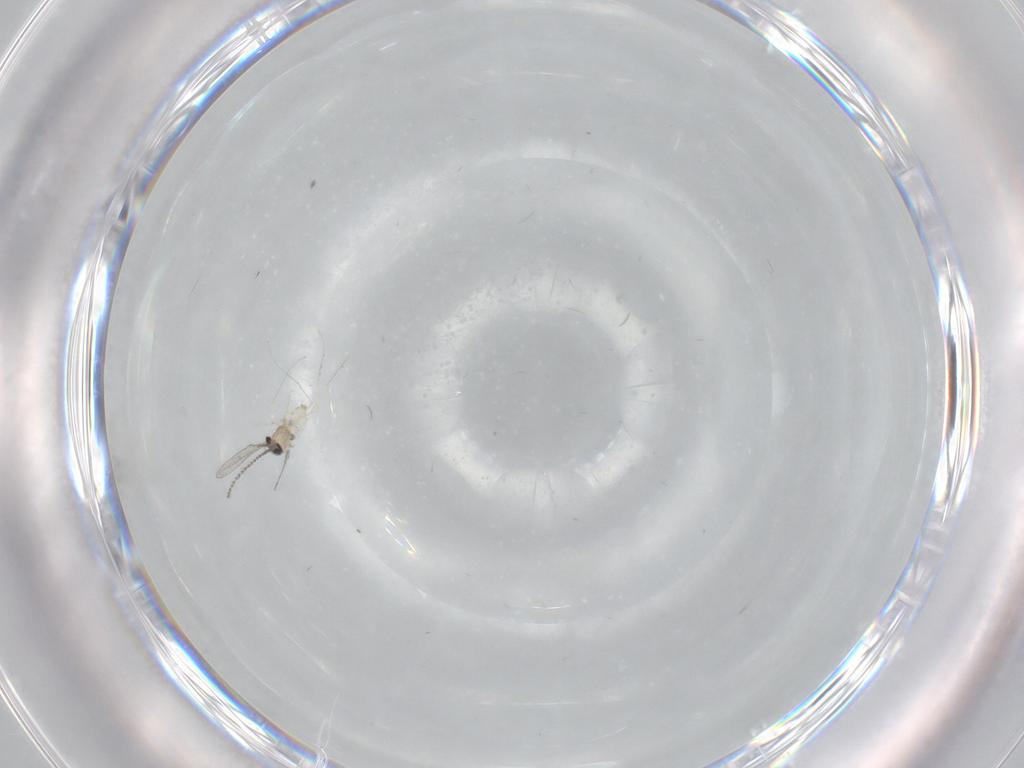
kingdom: Animalia
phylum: Arthropoda
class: Insecta
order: Diptera
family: Cecidomyiidae
